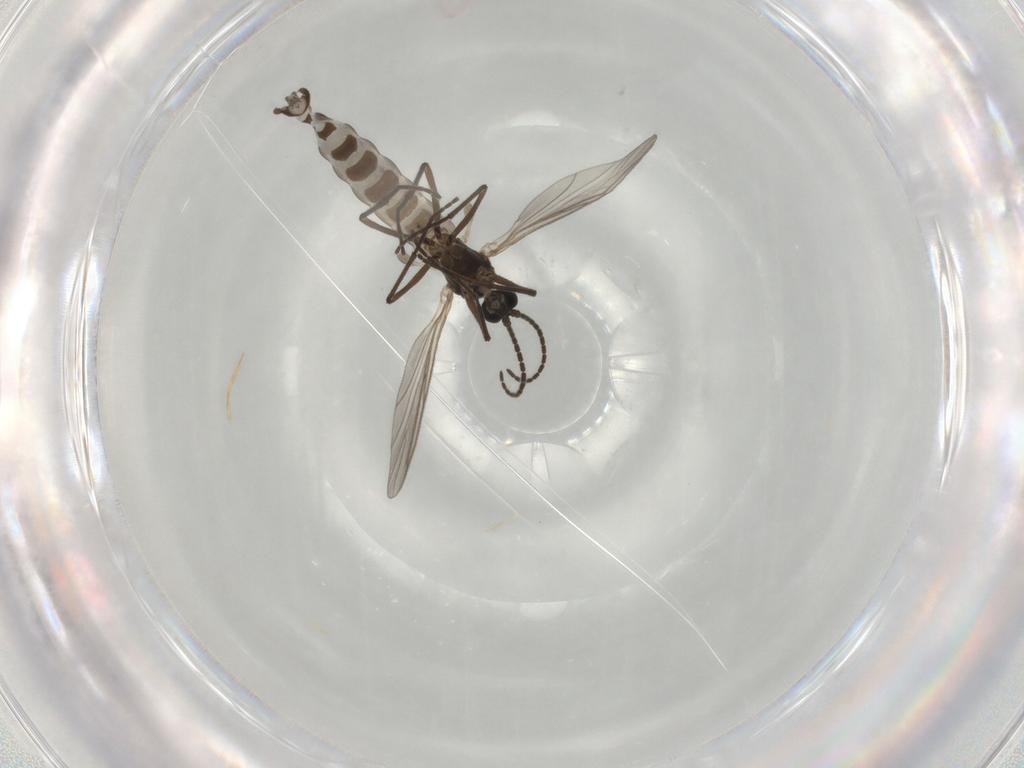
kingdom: Animalia
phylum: Arthropoda
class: Insecta
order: Diptera
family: Sciaridae
